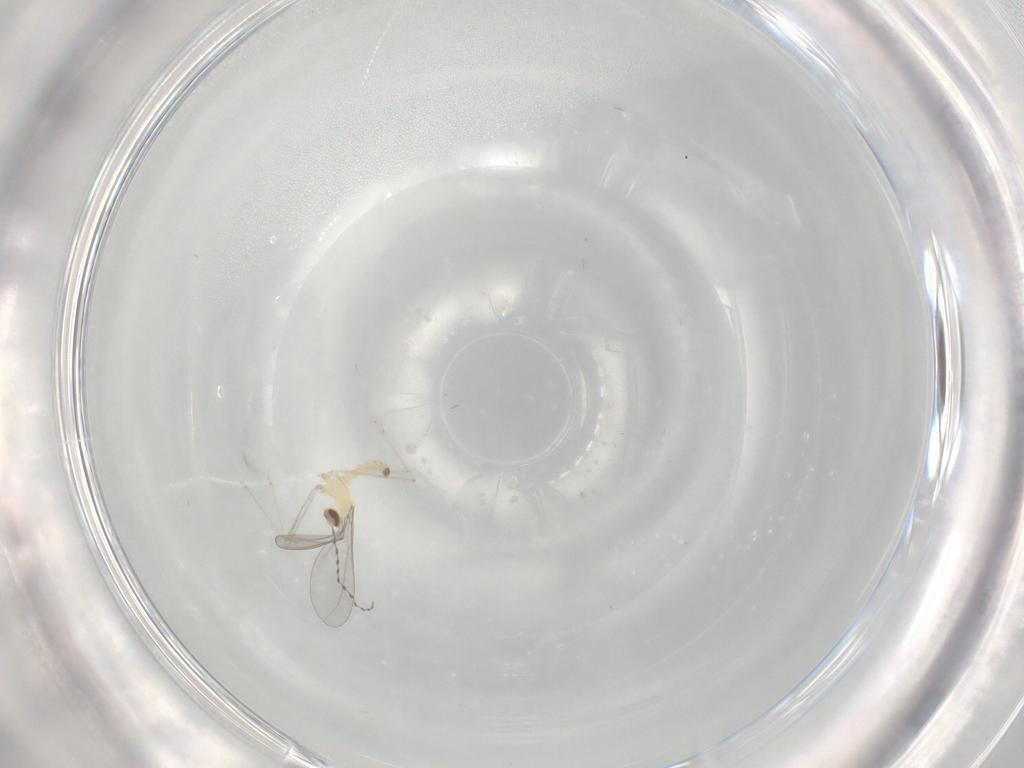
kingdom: Animalia
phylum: Arthropoda
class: Insecta
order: Diptera
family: Cecidomyiidae
